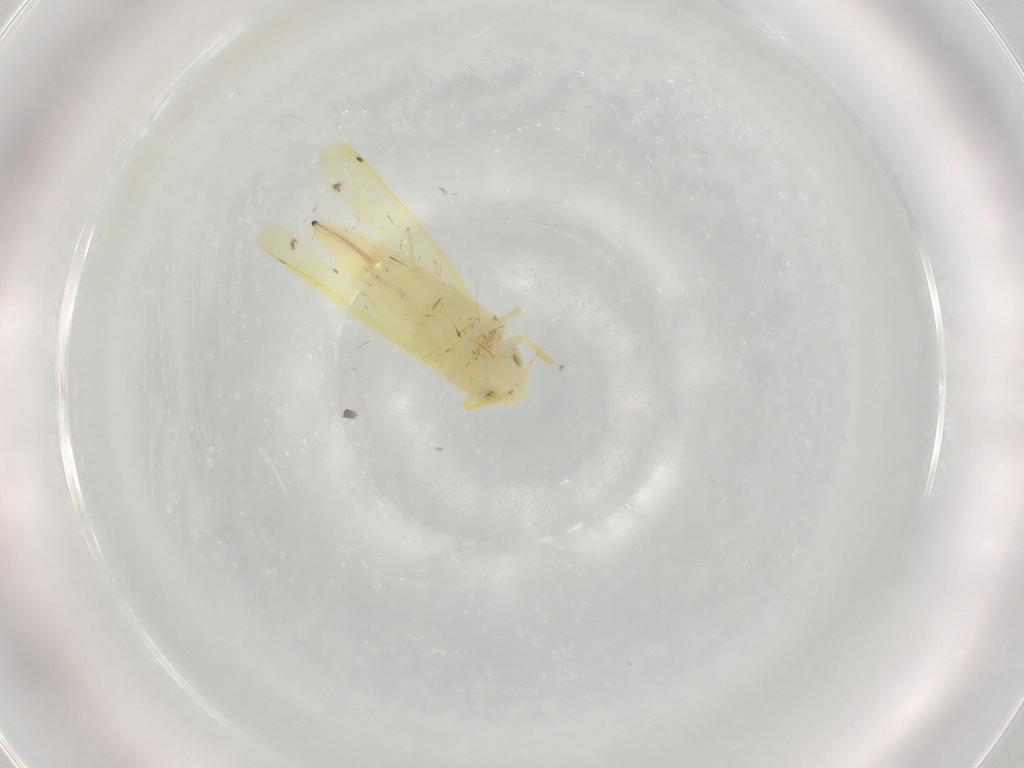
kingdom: Animalia
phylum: Arthropoda
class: Insecta
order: Hemiptera
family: Cicadellidae
